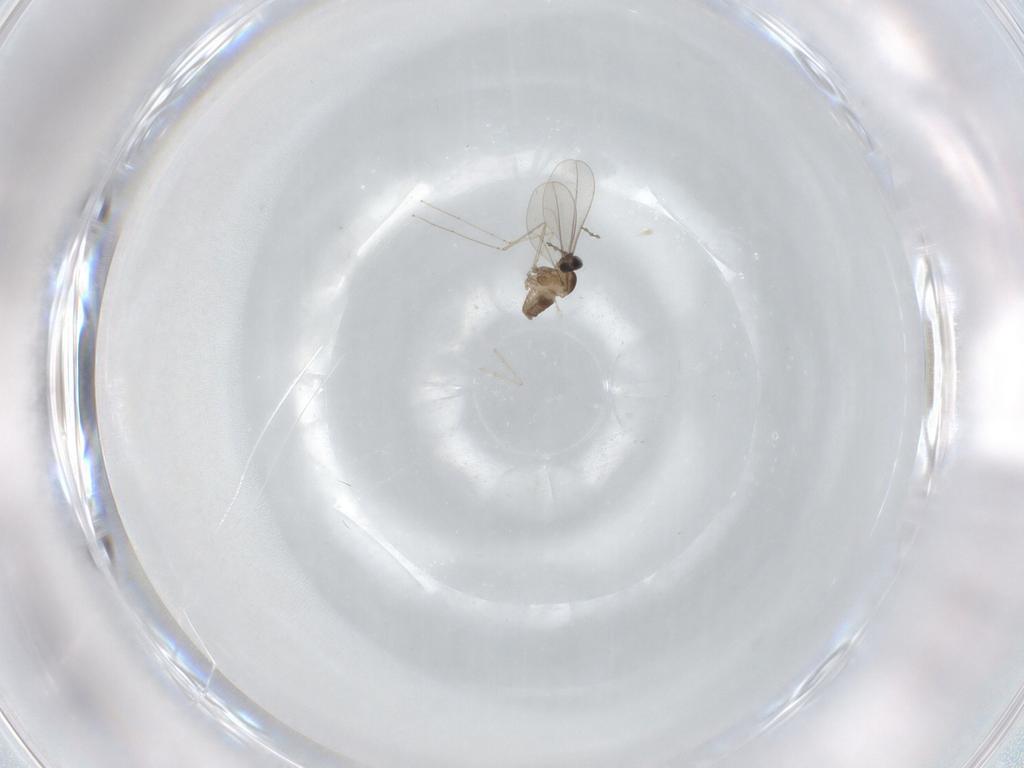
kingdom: Animalia
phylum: Arthropoda
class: Insecta
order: Diptera
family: Cecidomyiidae
